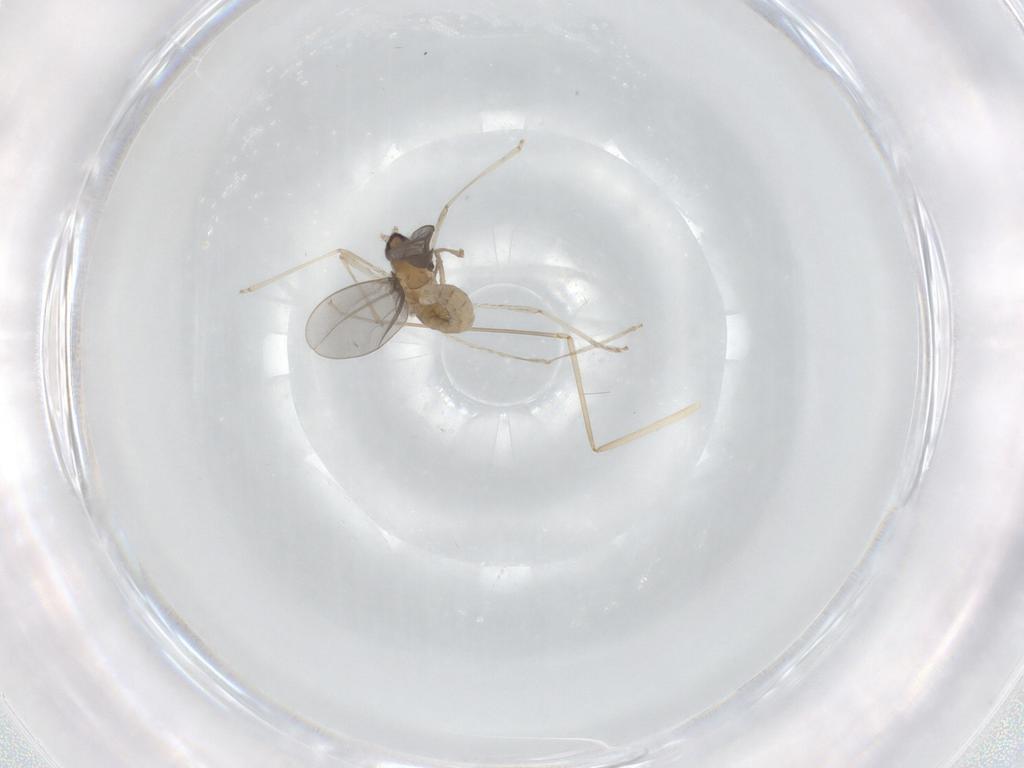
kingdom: Animalia
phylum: Arthropoda
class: Insecta
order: Diptera
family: Cecidomyiidae
